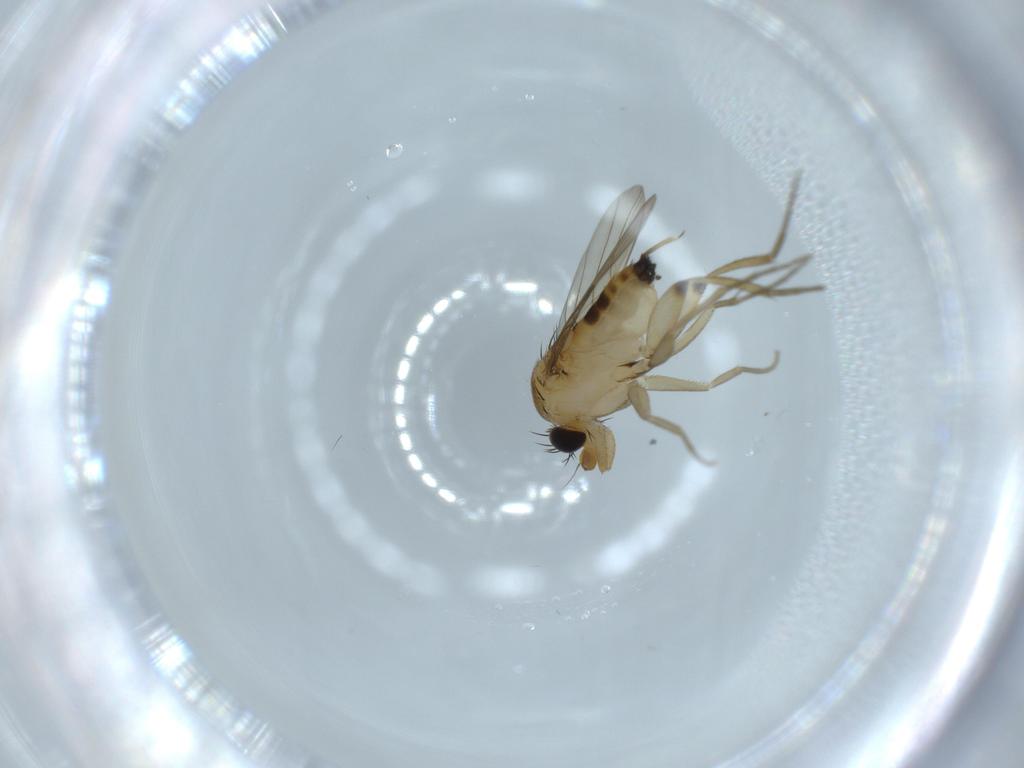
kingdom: Animalia
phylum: Arthropoda
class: Insecta
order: Diptera
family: Phoridae
